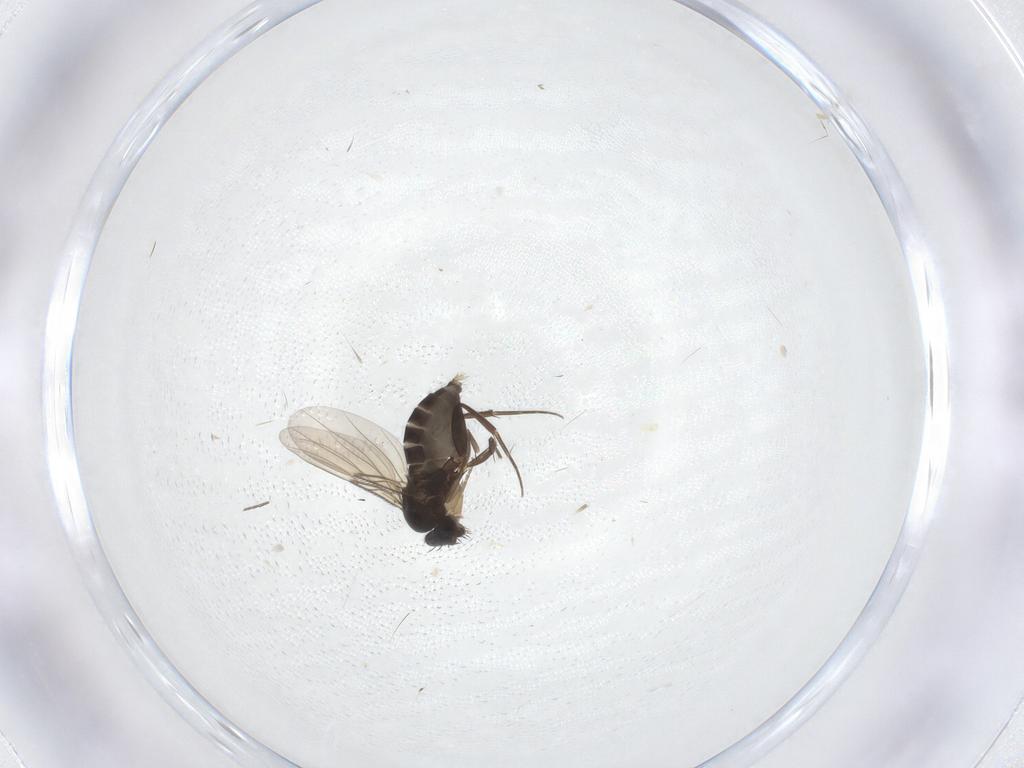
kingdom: Animalia
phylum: Arthropoda
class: Insecta
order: Diptera
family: Phoridae
